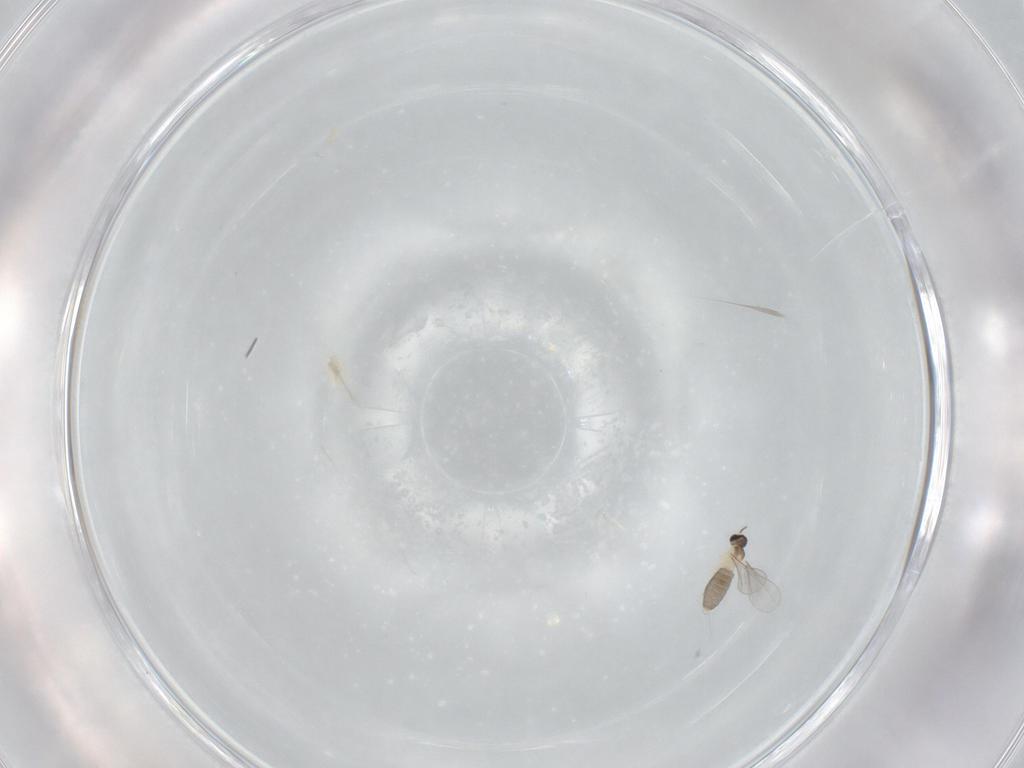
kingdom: Animalia
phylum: Arthropoda
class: Insecta
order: Diptera
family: Cecidomyiidae
